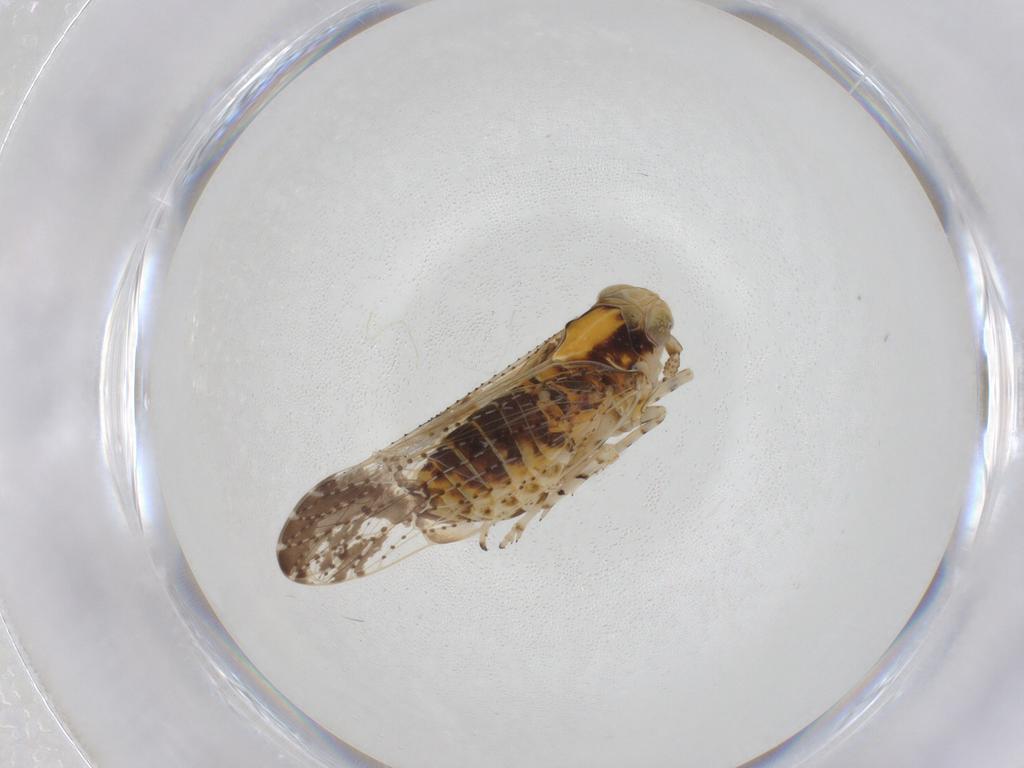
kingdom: Animalia
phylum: Arthropoda
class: Insecta
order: Hemiptera
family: Delphacidae
